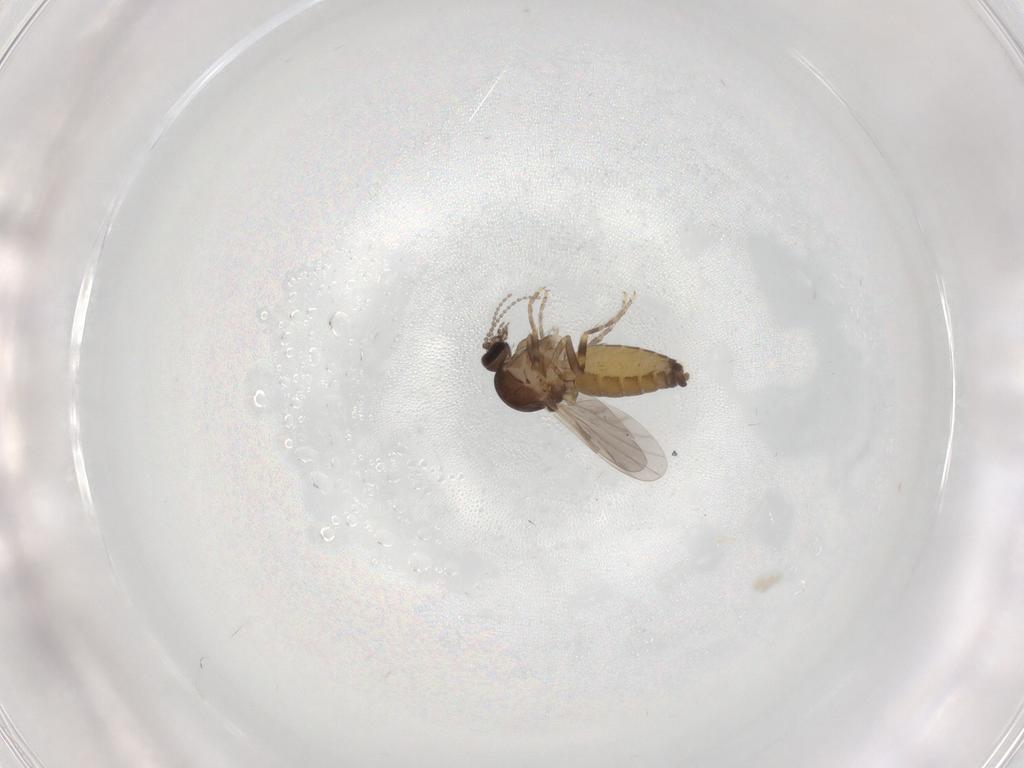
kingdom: Animalia
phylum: Arthropoda
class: Insecta
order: Diptera
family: Ceratopogonidae
